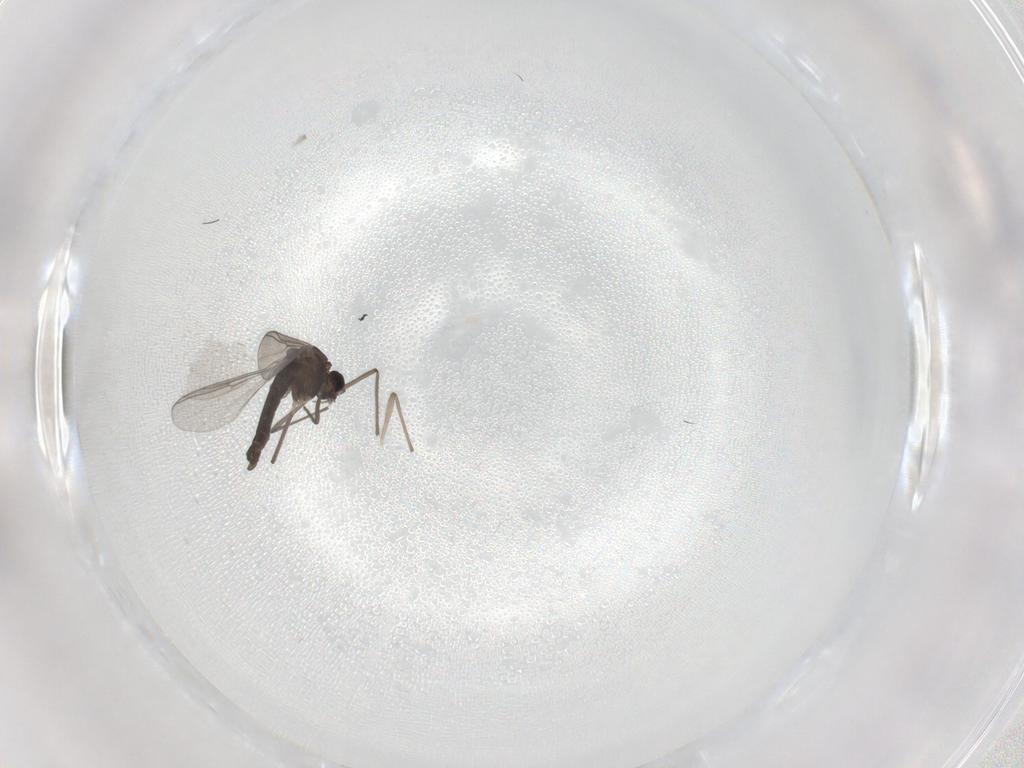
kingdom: Animalia
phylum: Arthropoda
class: Insecta
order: Diptera
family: Chironomidae
